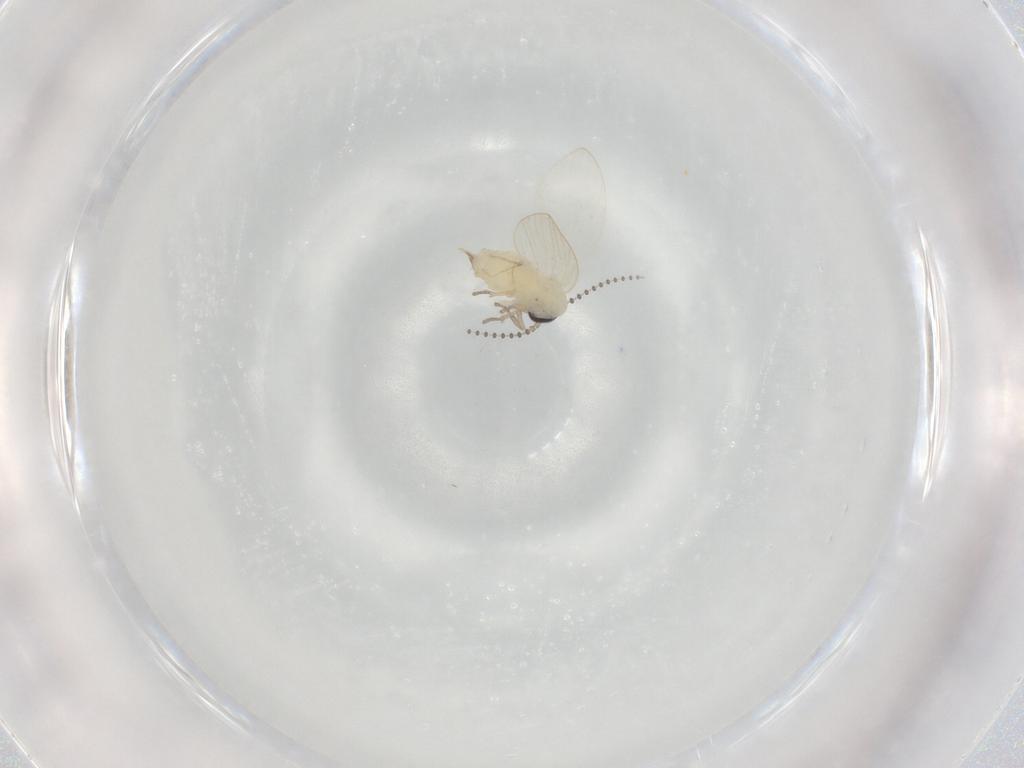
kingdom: Animalia
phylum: Arthropoda
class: Insecta
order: Diptera
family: Psychodidae
